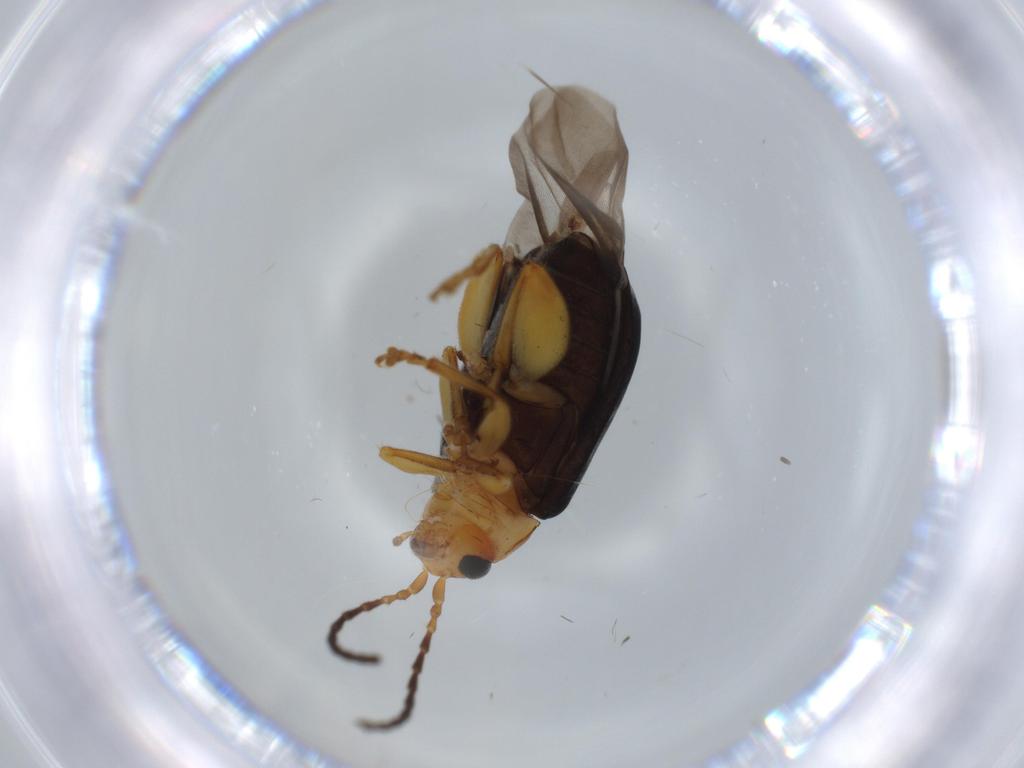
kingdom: Animalia
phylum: Arthropoda
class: Insecta
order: Coleoptera
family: Chrysomelidae
